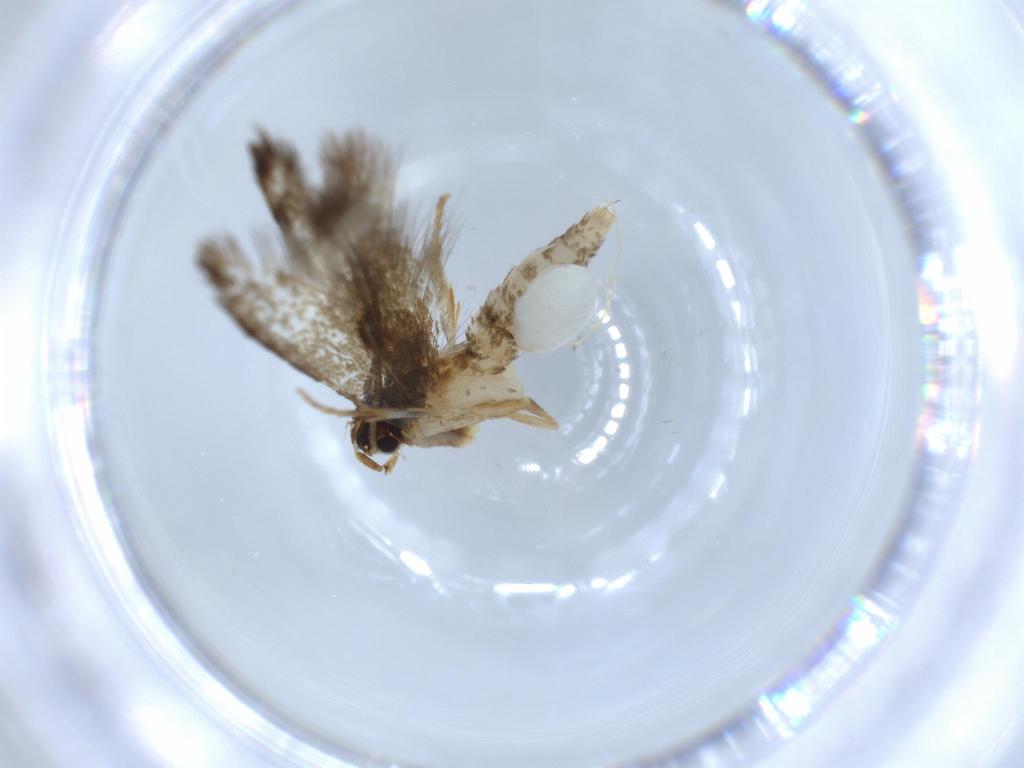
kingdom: Animalia
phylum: Arthropoda
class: Insecta
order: Lepidoptera
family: Tineidae
